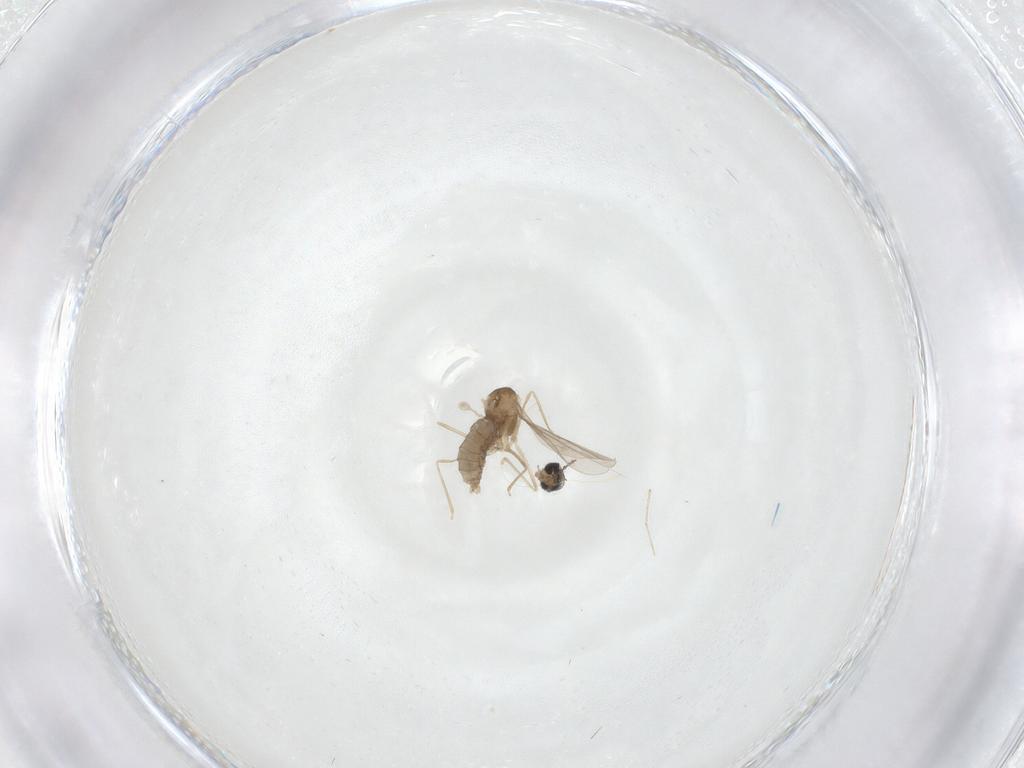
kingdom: Animalia
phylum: Arthropoda
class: Insecta
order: Diptera
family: Cecidomyiidae
